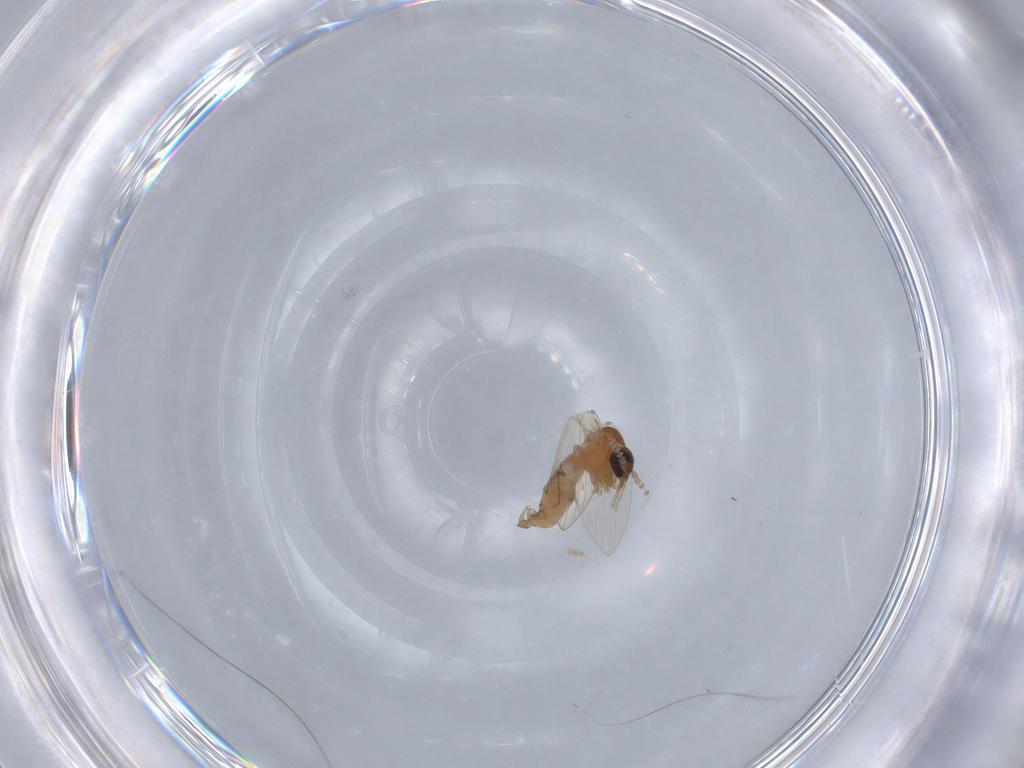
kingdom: Animalia
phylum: Arthropoda
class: Insecta
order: Diptera
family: Psychodidae
